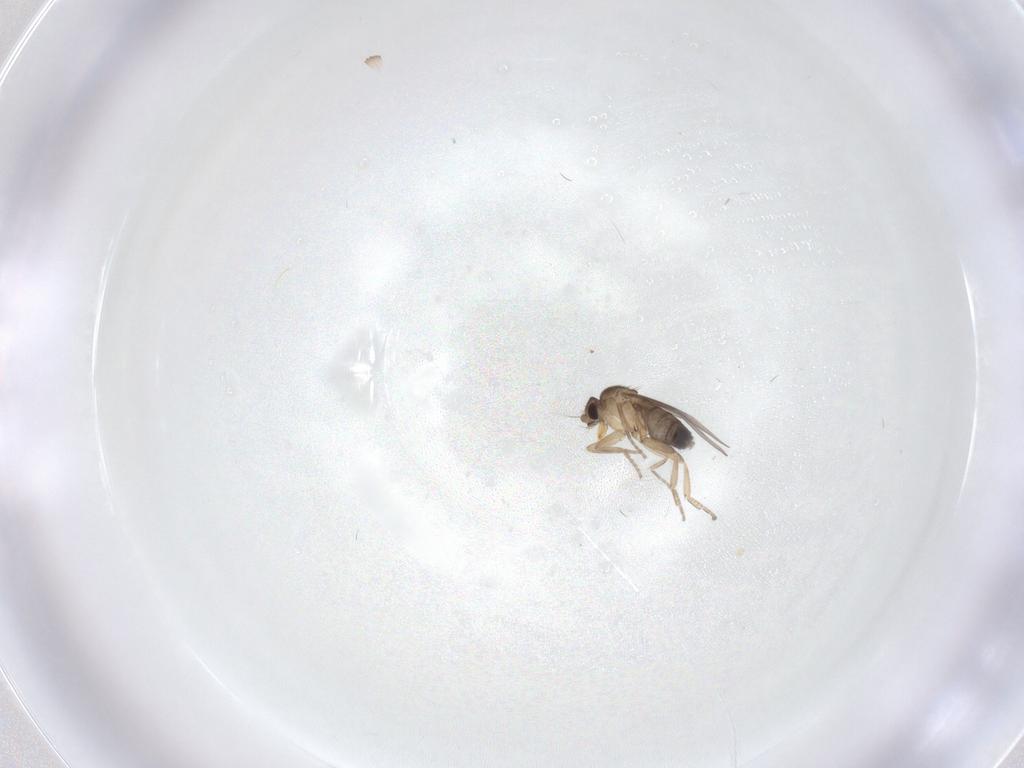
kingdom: Animalia
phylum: Arthropoda
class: Insecta
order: Diptera
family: Phoridae
